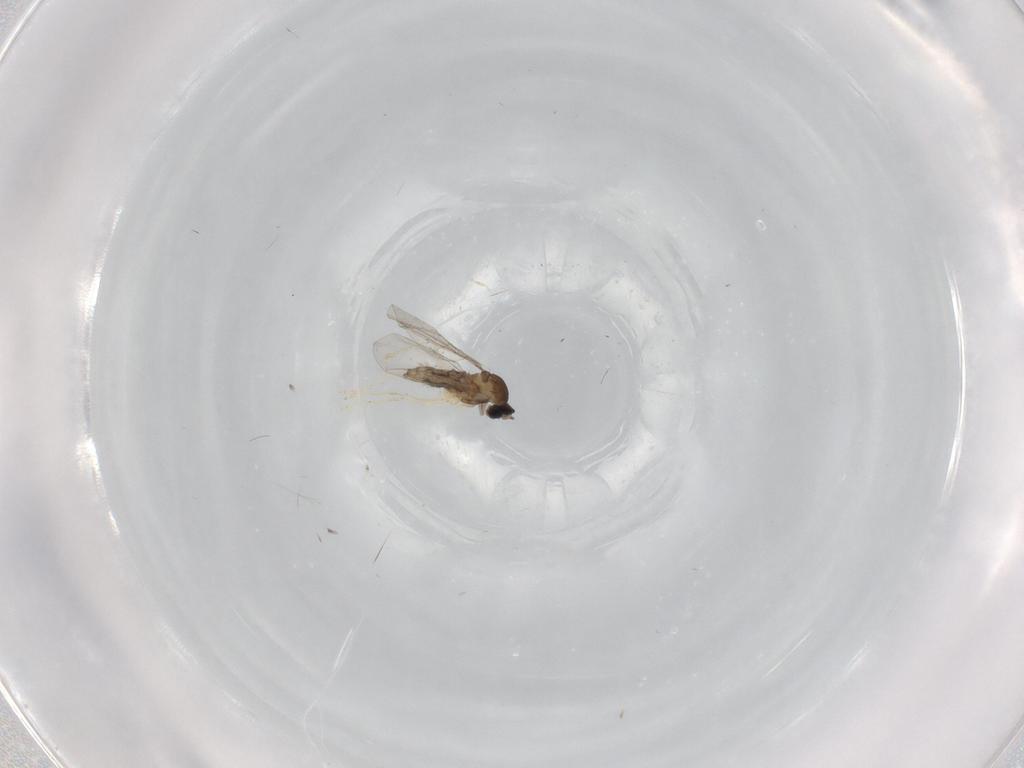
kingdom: Animalia
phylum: Arthropoda
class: Insecta
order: Diptera
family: Cecidomyiidae
